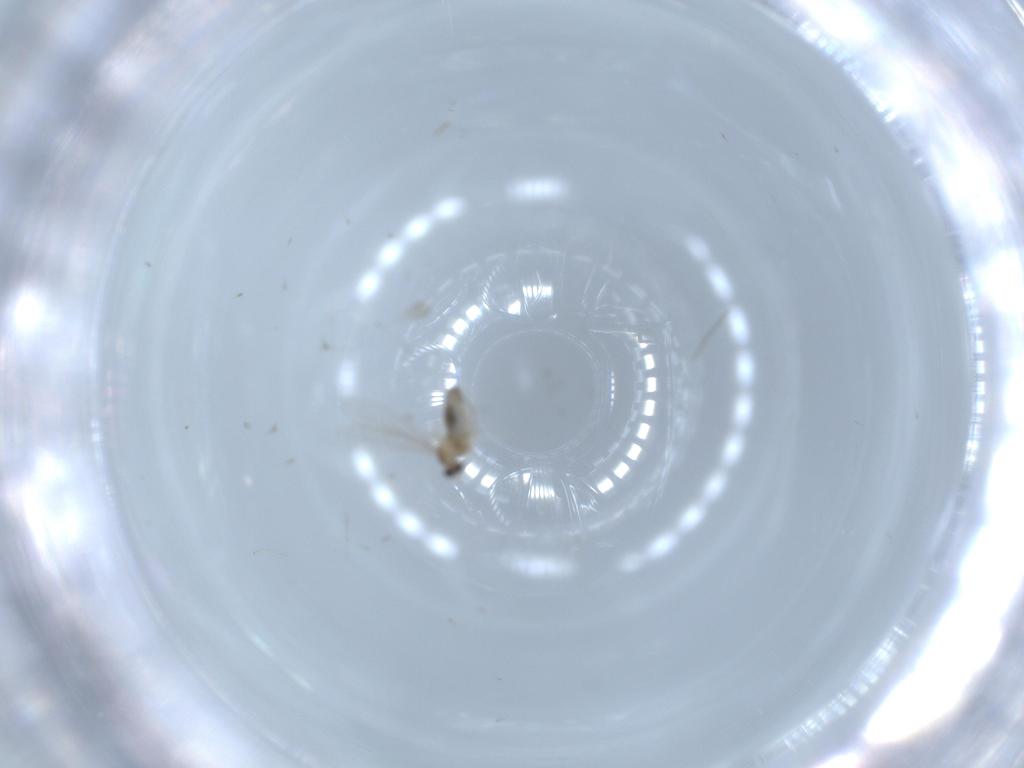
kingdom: Animalia
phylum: Arthropoda
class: Insecta
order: Diptera
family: Cecidomyiidae
